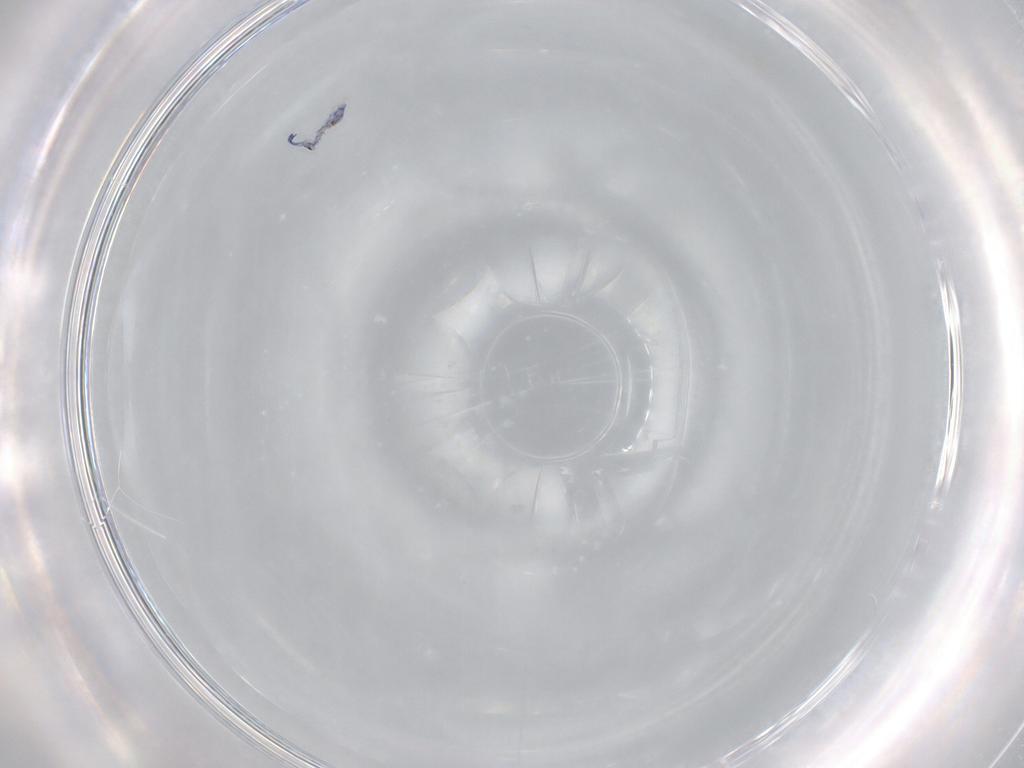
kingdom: Animalia
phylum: Arthropoda
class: Collembola
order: Entomobryomorpha
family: Entomobryidae
